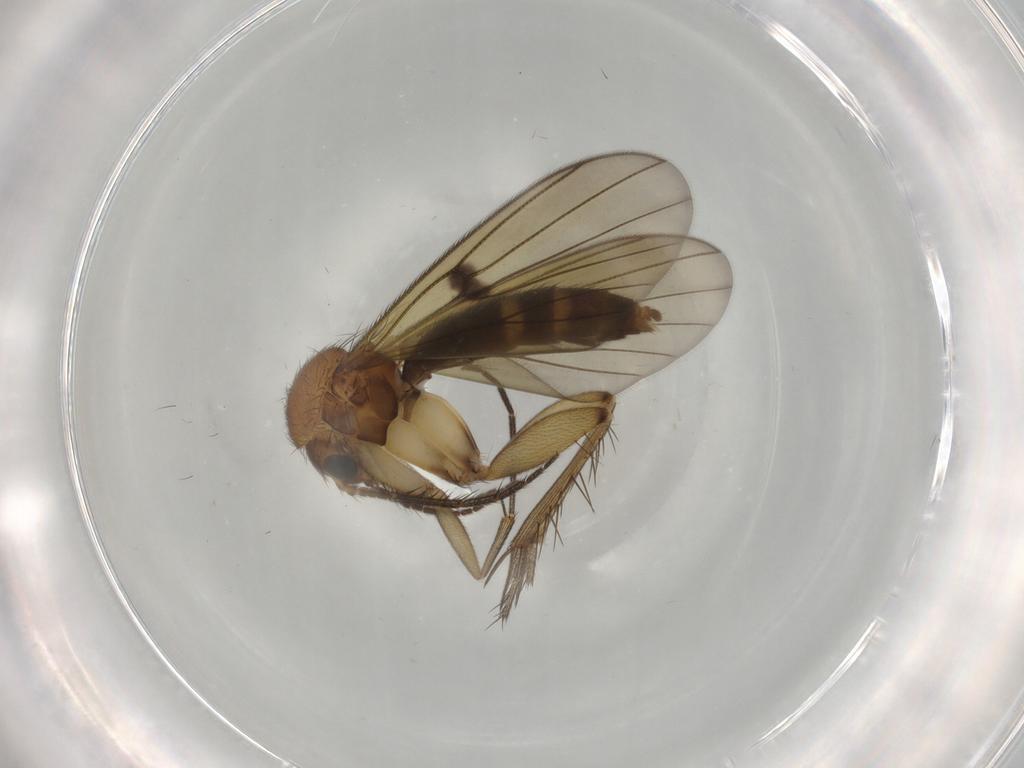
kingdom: Animalia
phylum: Arthropoda
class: Insecta
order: Diptera
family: Mycetophilidae
